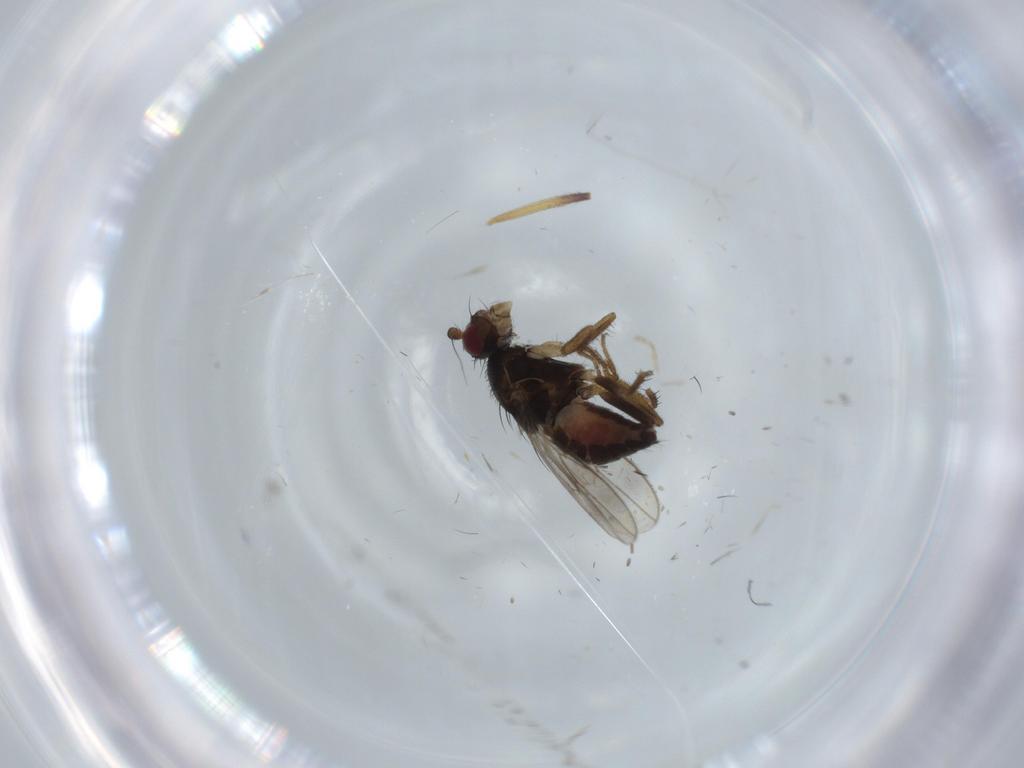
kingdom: Animalia
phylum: Arthropoda
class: Insecta
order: Diptera
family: Sphaeroceridae
